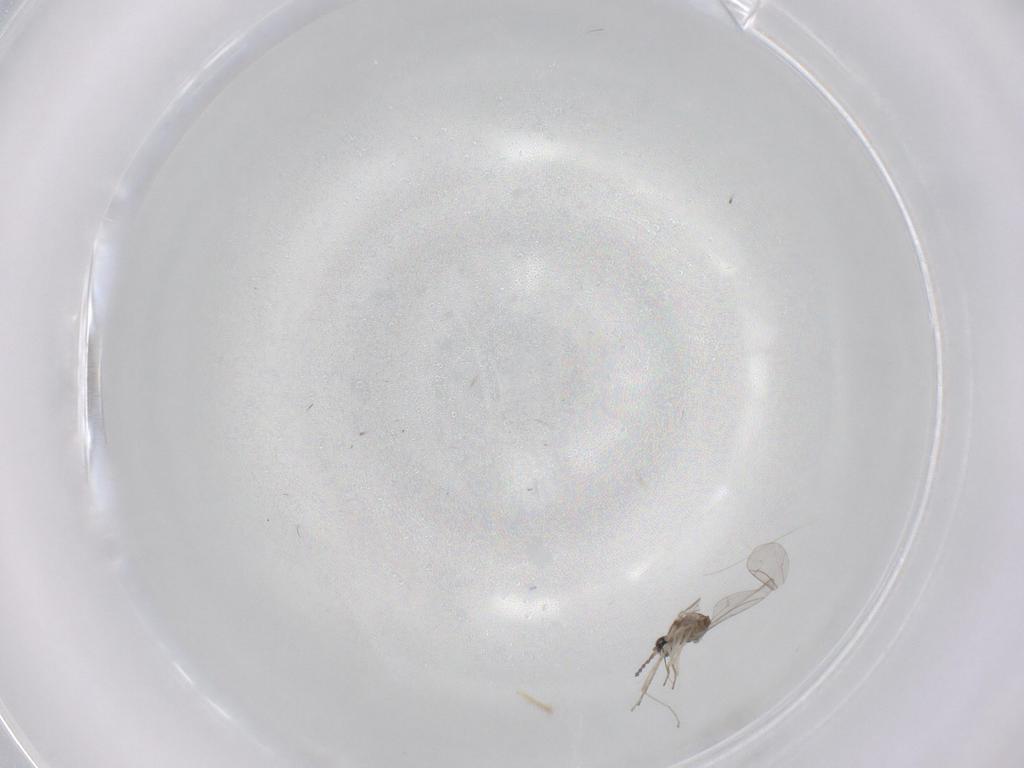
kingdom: Animalia
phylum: Arthropoda
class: Insecta
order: Diptera
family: Cecidomyiidae
